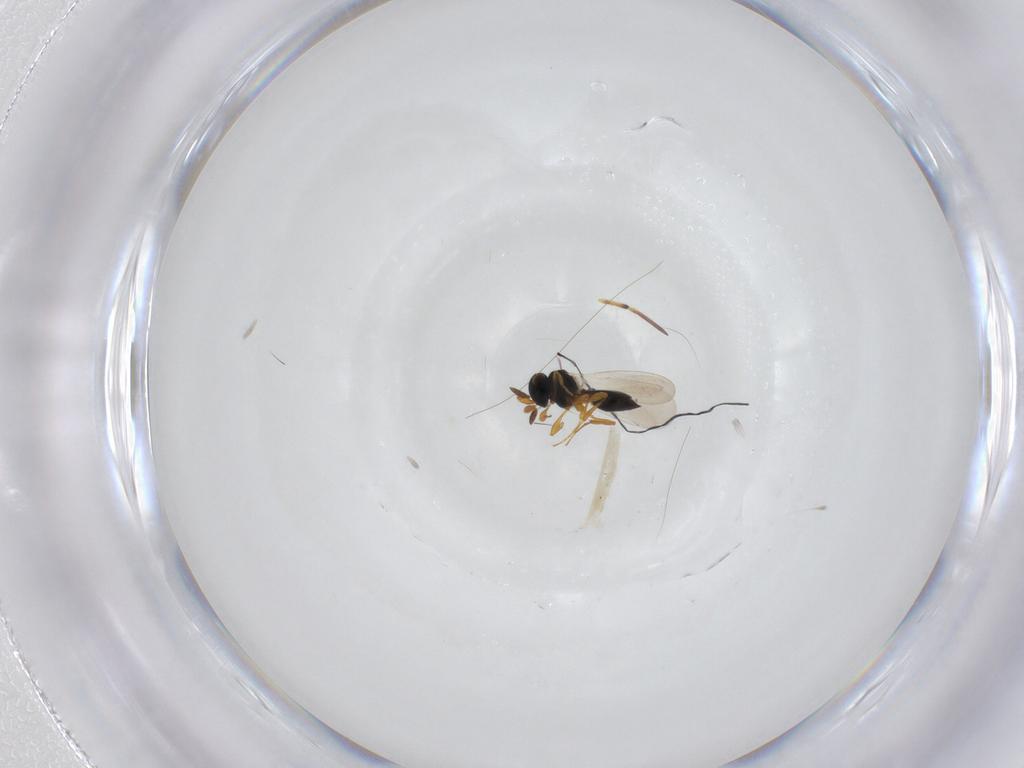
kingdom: Animalia
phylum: Arthropoda
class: Insecta
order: Hymenoptera
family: Platygastridae
